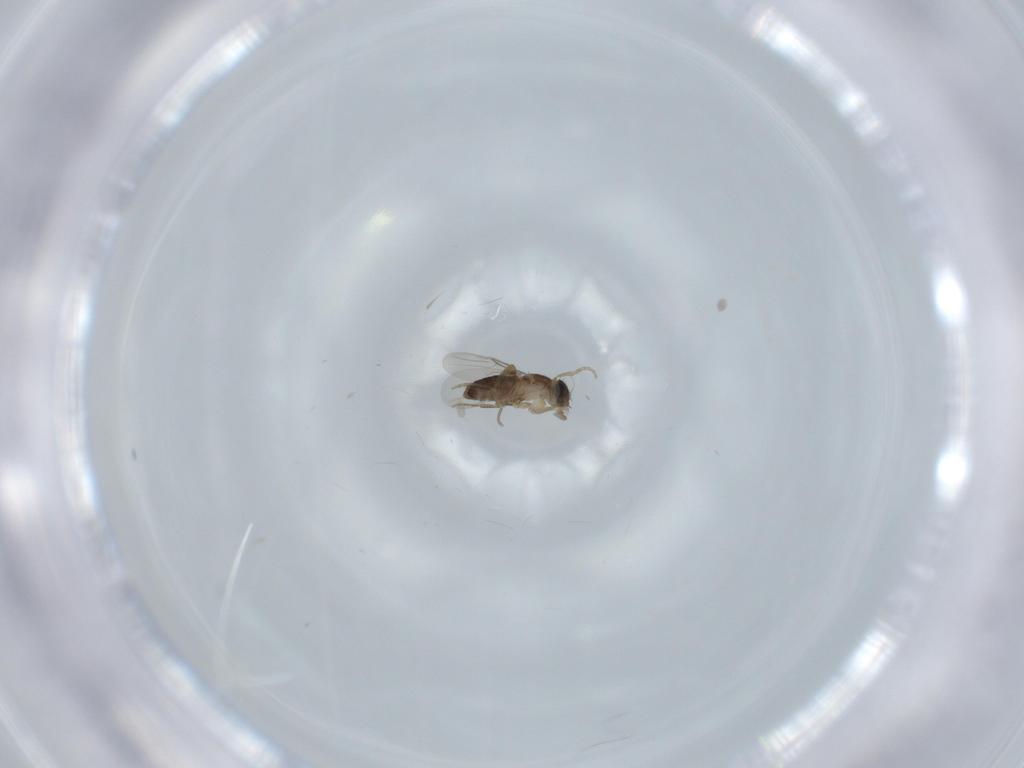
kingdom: Animalia
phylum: Arthropoda
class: Insecta
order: Diptera
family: Cecidomyiidae
